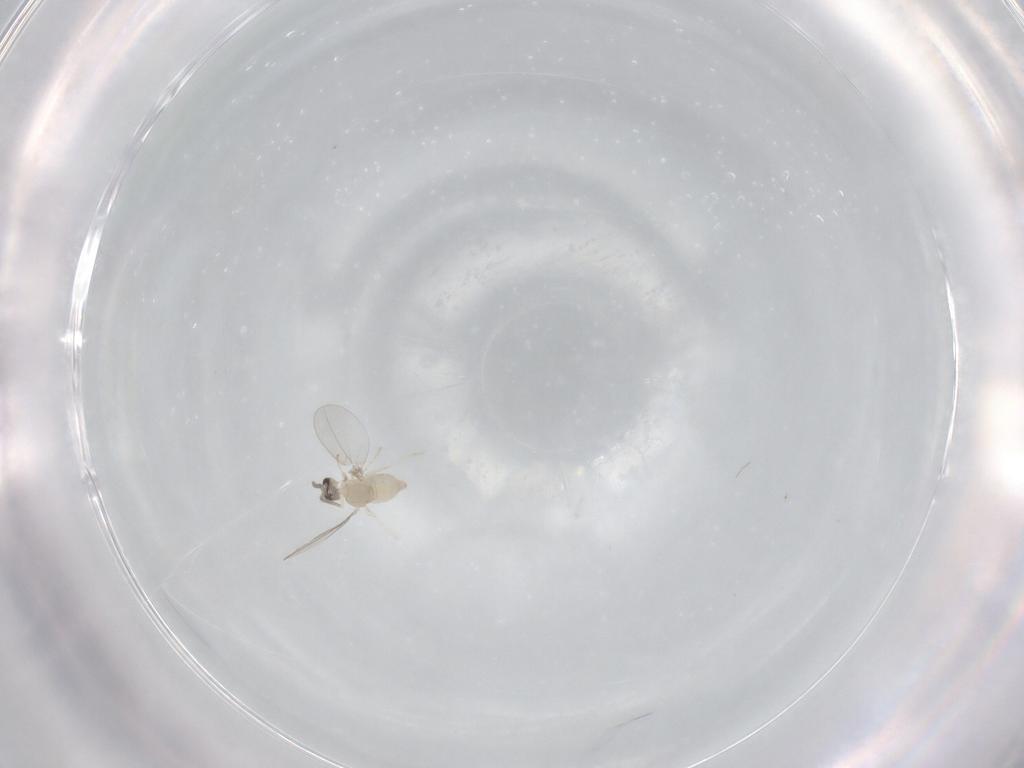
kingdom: Animalia
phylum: Arthropoda
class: Insecta
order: Diptera
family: Cecidomyiidae
